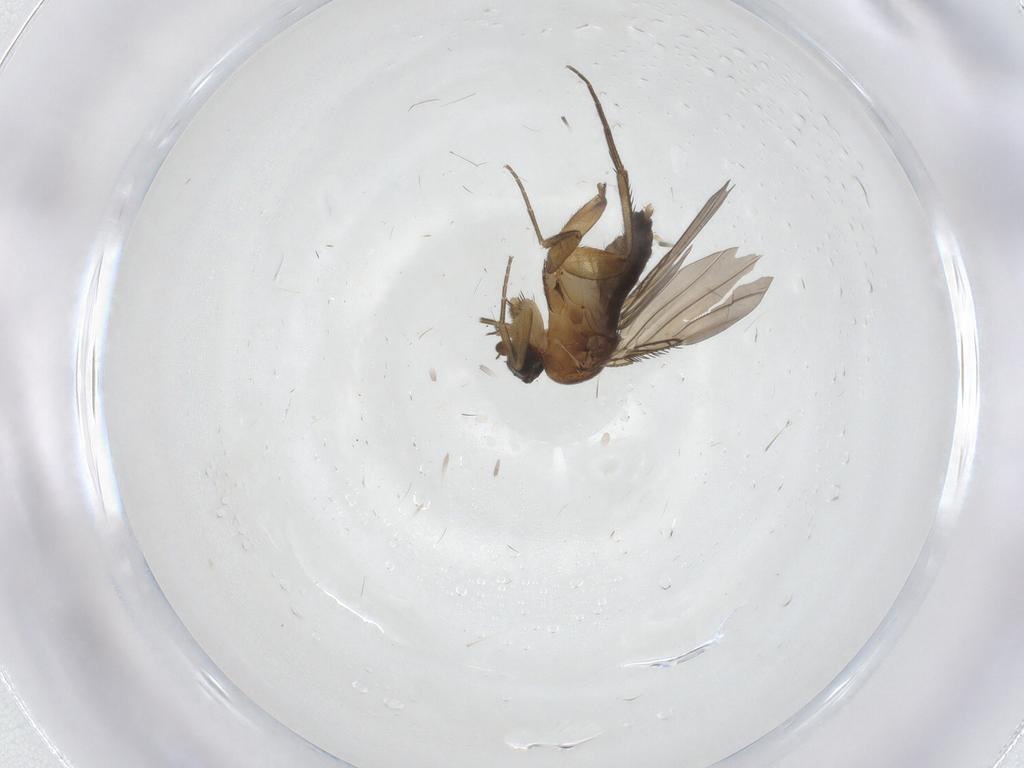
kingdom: Animalia
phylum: Arthropoda
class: Insecta
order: Diptera
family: Phoridae
